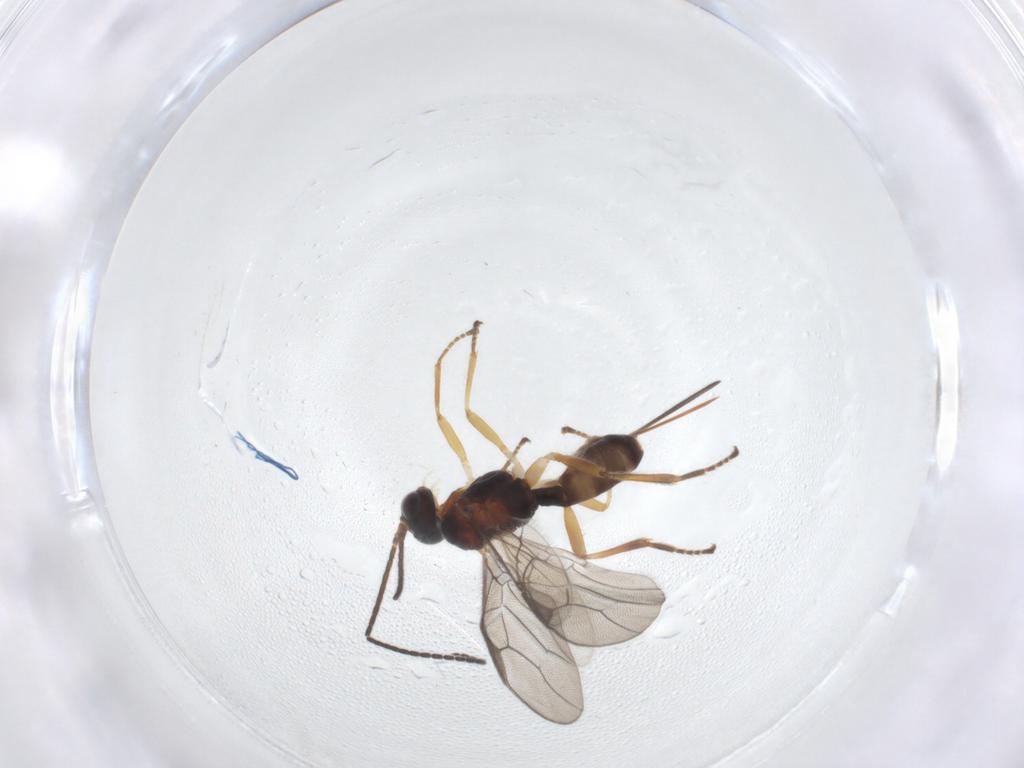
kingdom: Animalia
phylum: Arthropoda
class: Insecta
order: Hymenoptera
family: Braconidae
